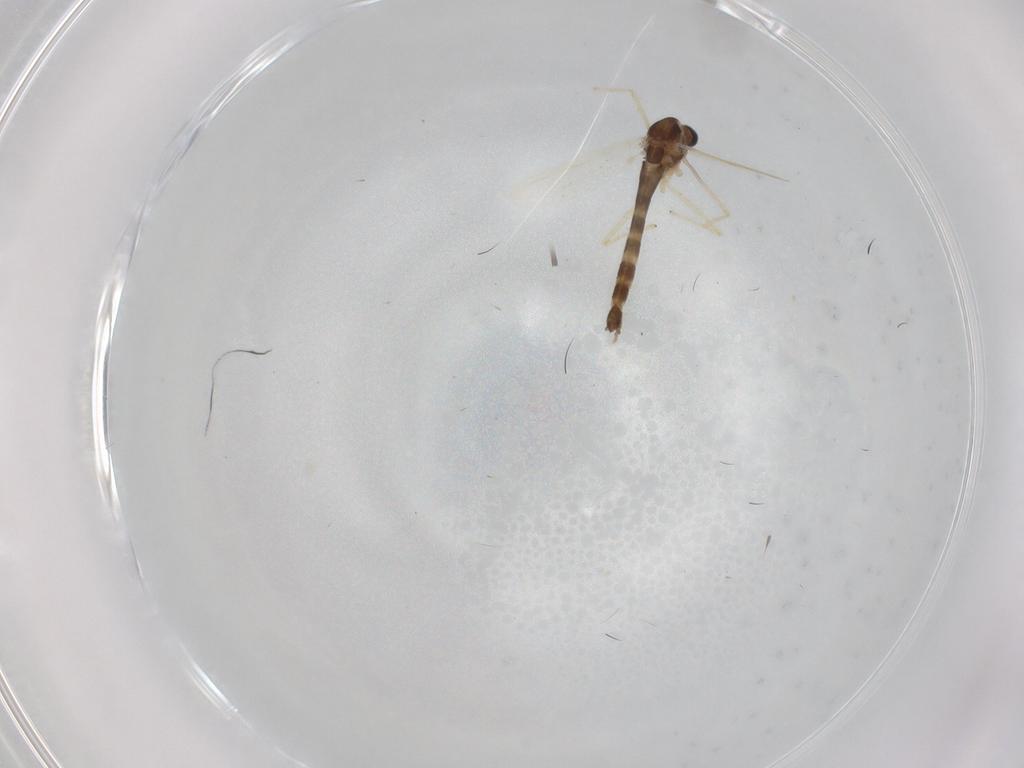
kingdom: Animalia
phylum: Arthropoda
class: Insecta
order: Diptera
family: Chironomidae
